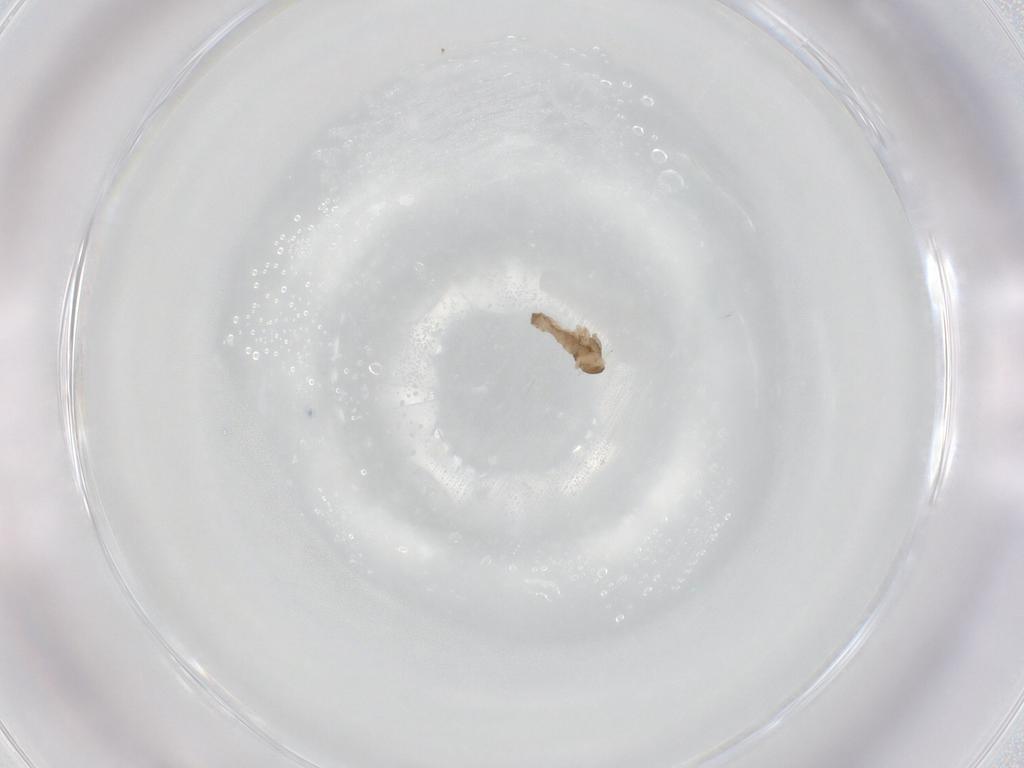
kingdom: Animalia
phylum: Arthropoda
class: Insecta
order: Diptera
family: Cecidomyiidae
